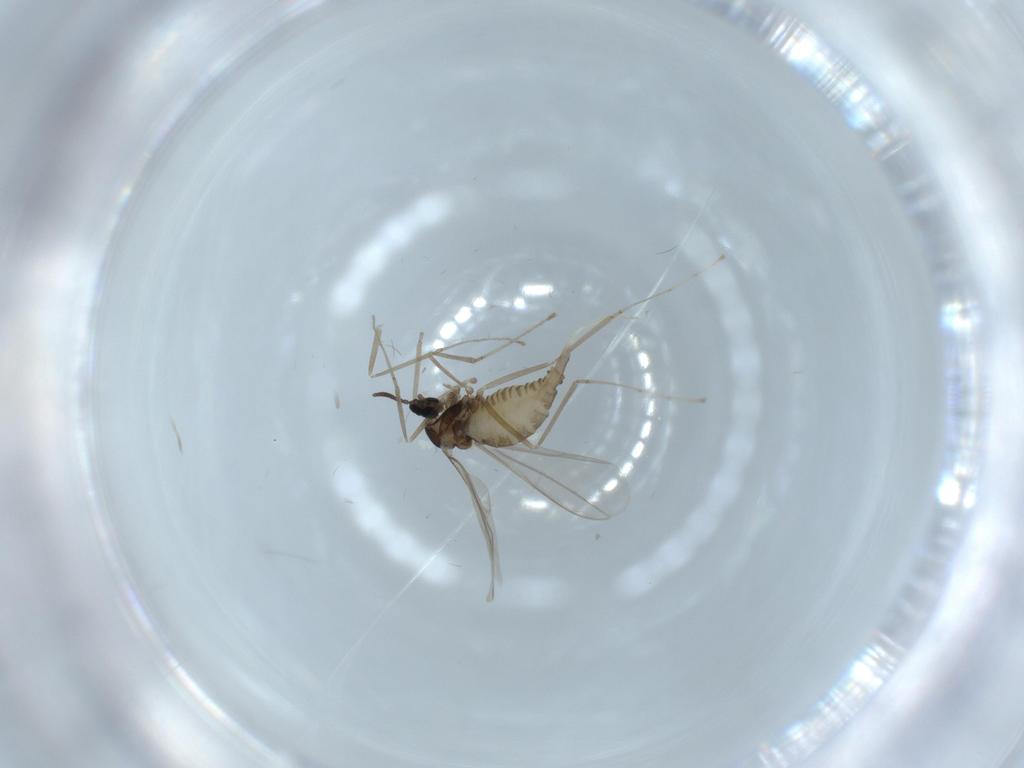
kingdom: Animalia
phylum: Arthropoda
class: Insecta
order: Diptera
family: Cecidomyiidae
